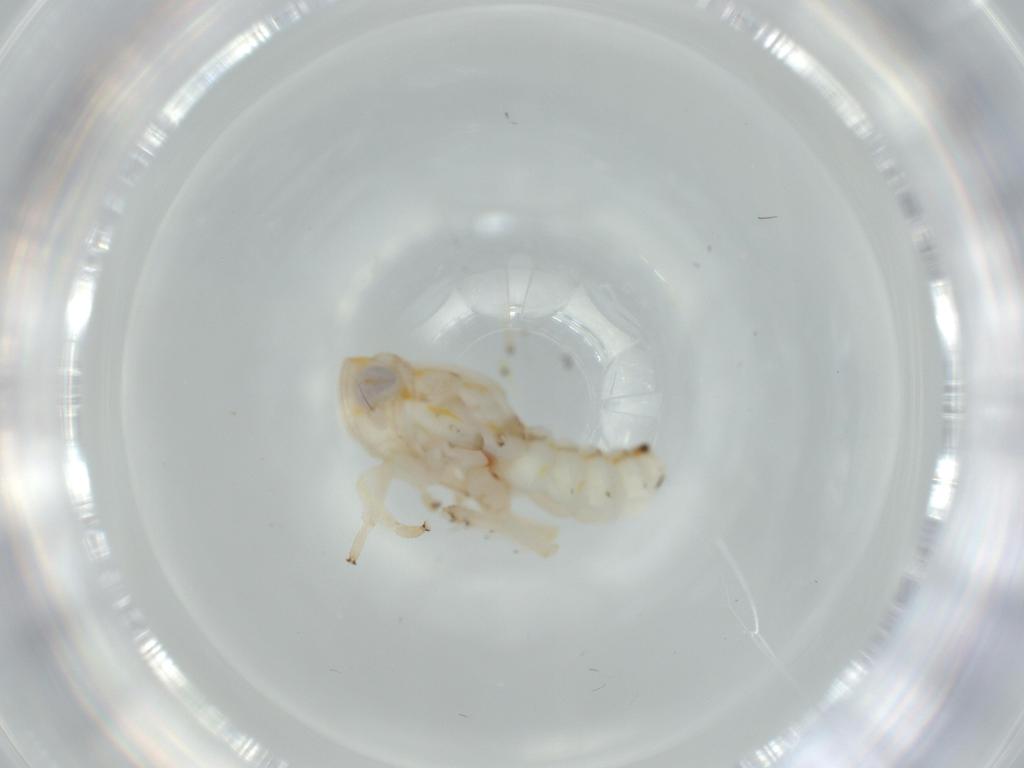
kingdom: Animalia
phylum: Arthropoda
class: Insecta
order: Hemiptera
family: Nogodinidae
